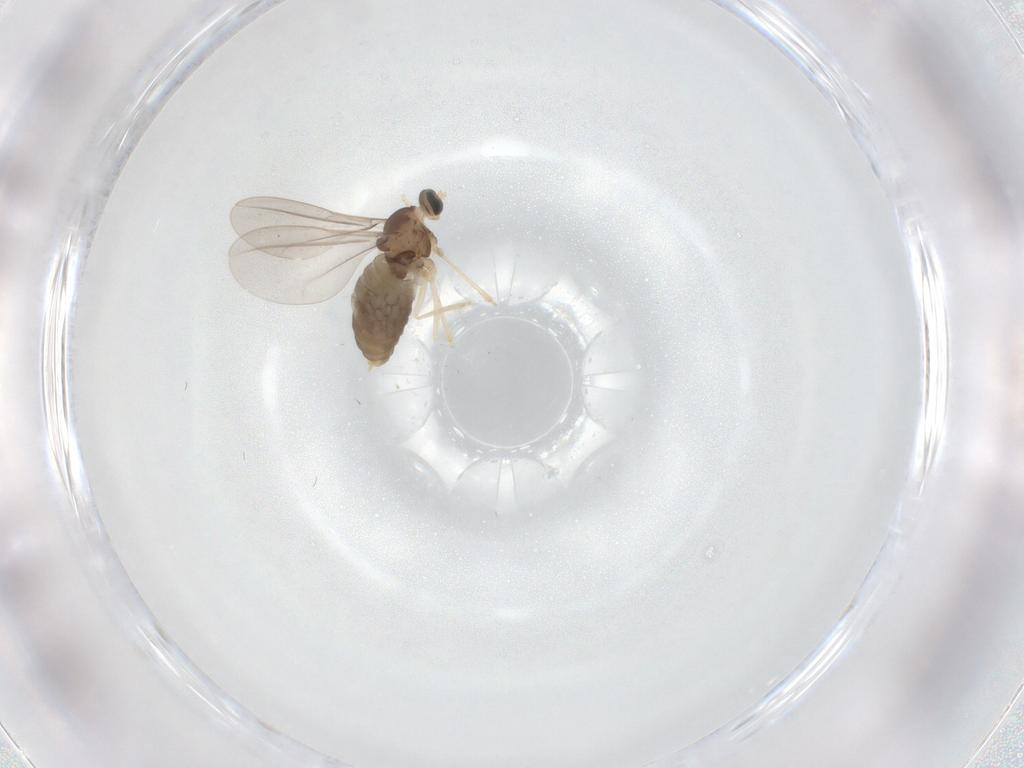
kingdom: Animalia
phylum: Arthropoda
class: Insecta
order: Diptera
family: Cecidomyiidae
